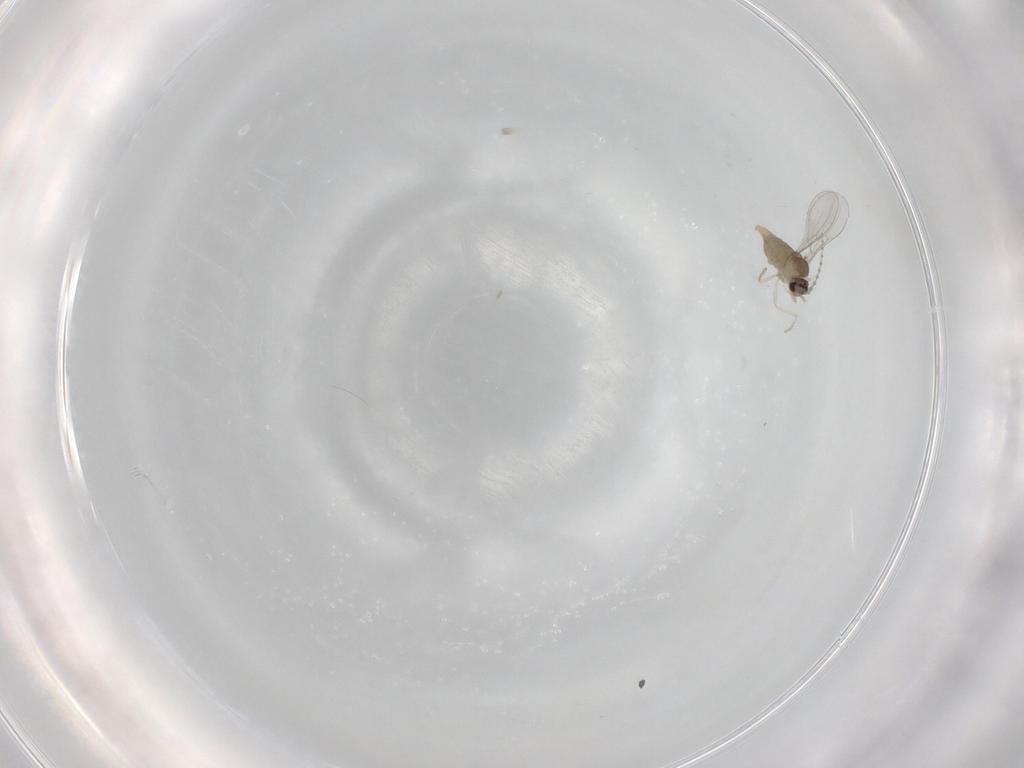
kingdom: Animalia
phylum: Arthropoda
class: Insecta
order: Diptera
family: Cecidomyiidae
